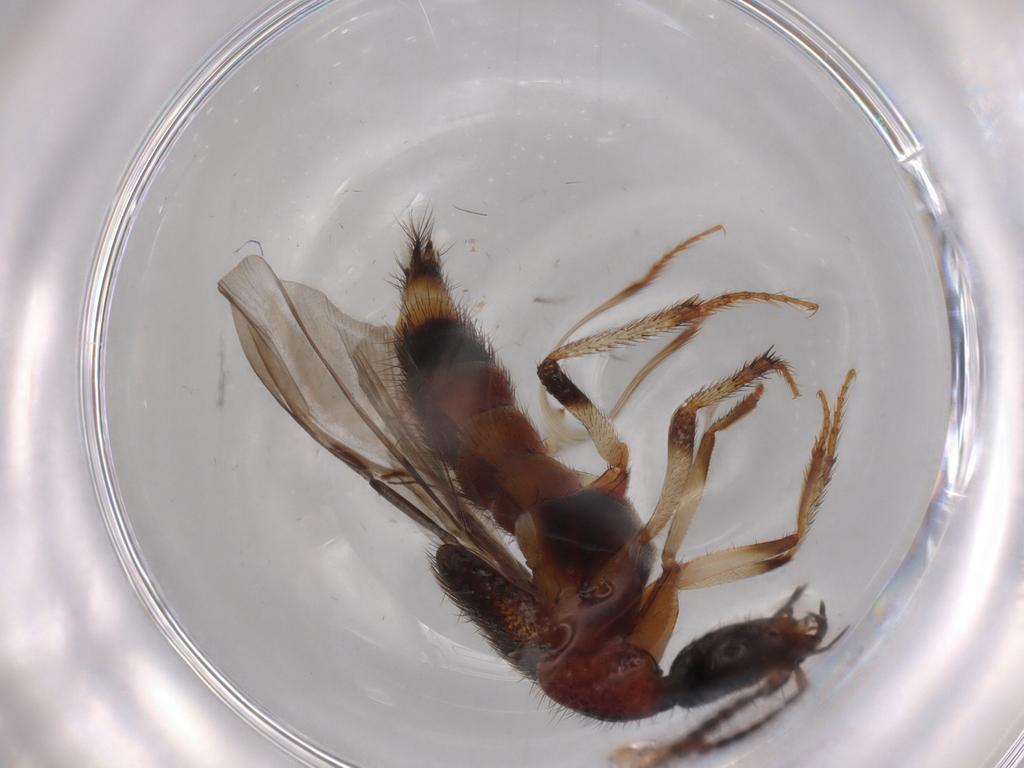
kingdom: Animalia
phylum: Arthropoda
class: Insecta
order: Coleoptera
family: Staphylinidae
